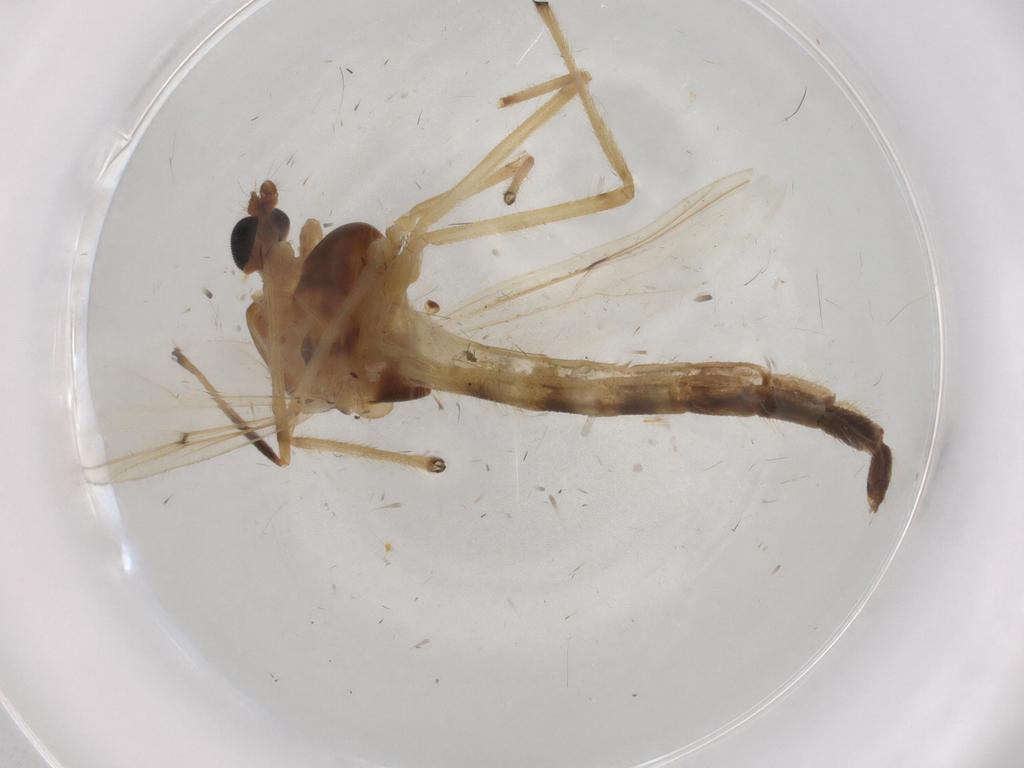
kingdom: Animalia
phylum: Arthropoda
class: Insecta
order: Diptera
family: Chironomidae
